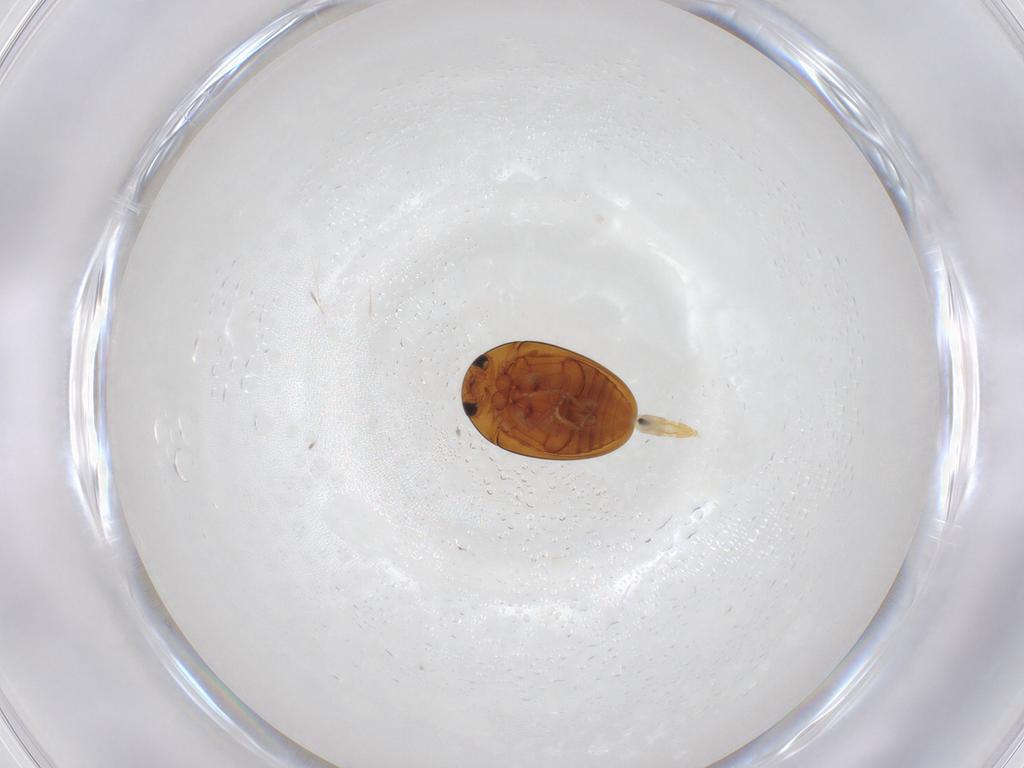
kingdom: Animalia
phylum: Arthropoda
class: Insecta
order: Coleoptera
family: Phalacridae
